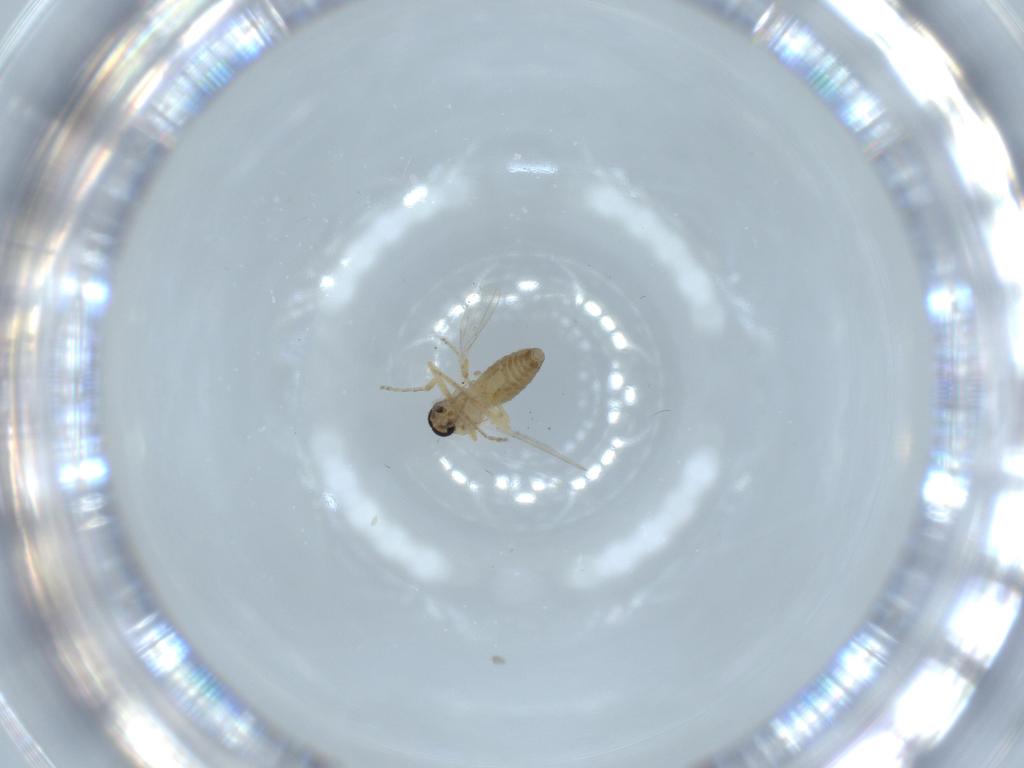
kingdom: Animalia
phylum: Arthropoda
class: Insecta
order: Diptera
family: Ceratopogonidae
